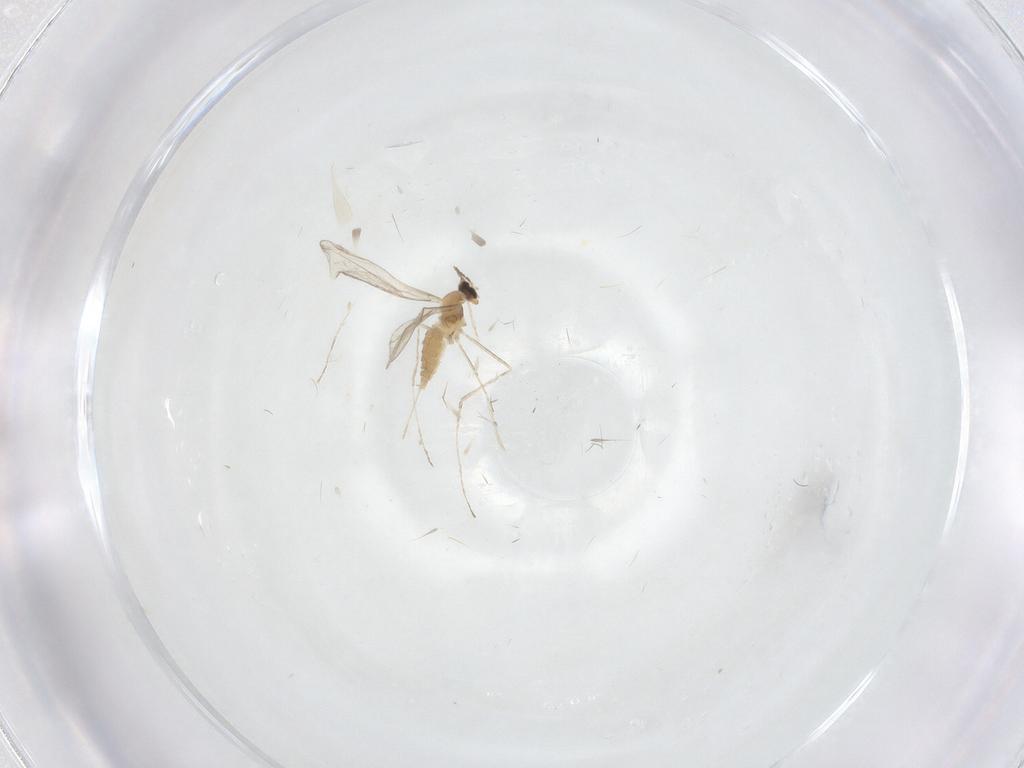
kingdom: Animalia
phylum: Arthropoda
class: Insecta
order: Diptera
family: Cecidomyiidae
